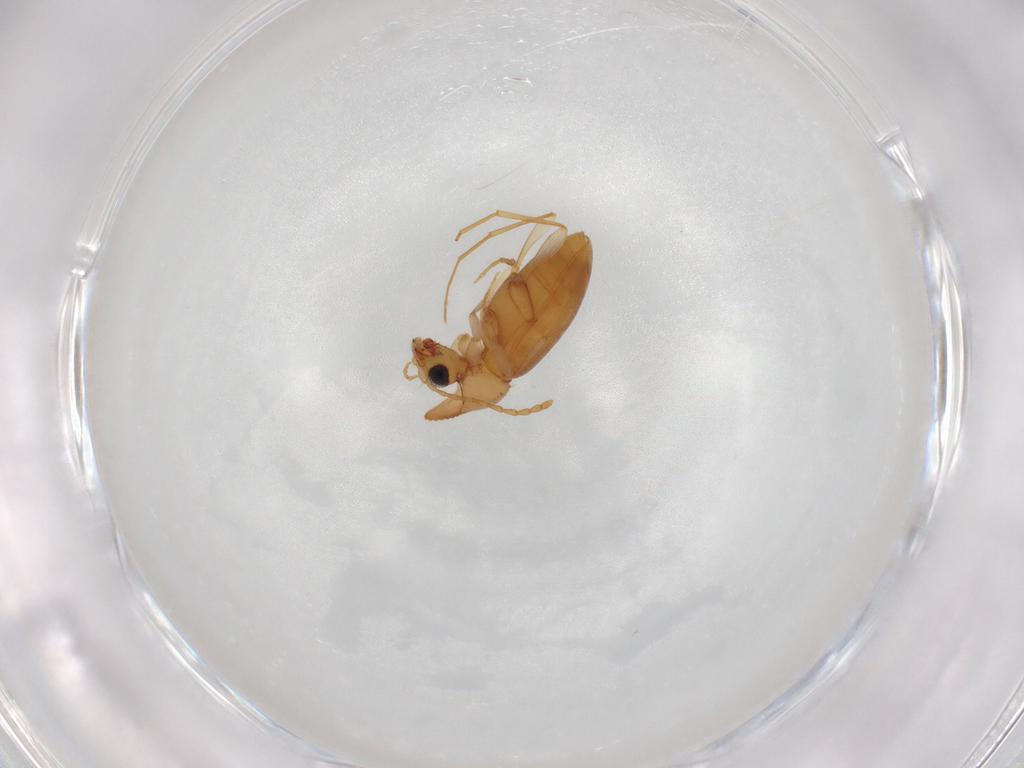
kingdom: Animalia
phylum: Arthropoda
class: Insecta
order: Coleoptera
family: Anthicidae
